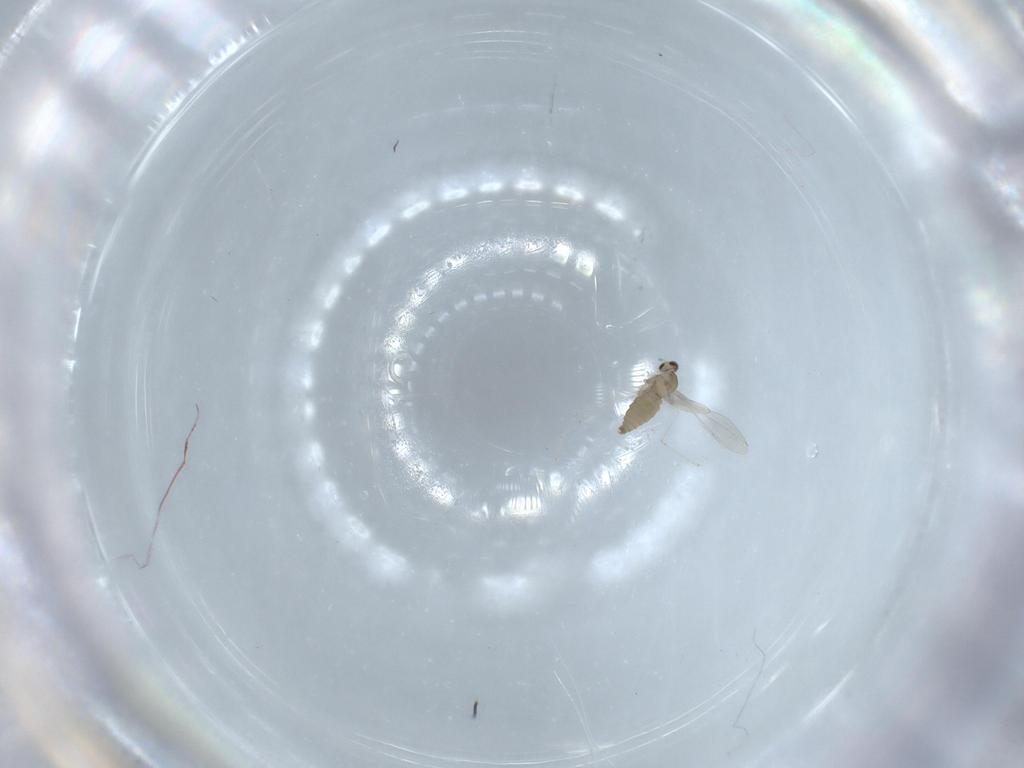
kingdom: Animalia
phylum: Arthropoda
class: Insecta
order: Diptera
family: Cecidomyiidae
